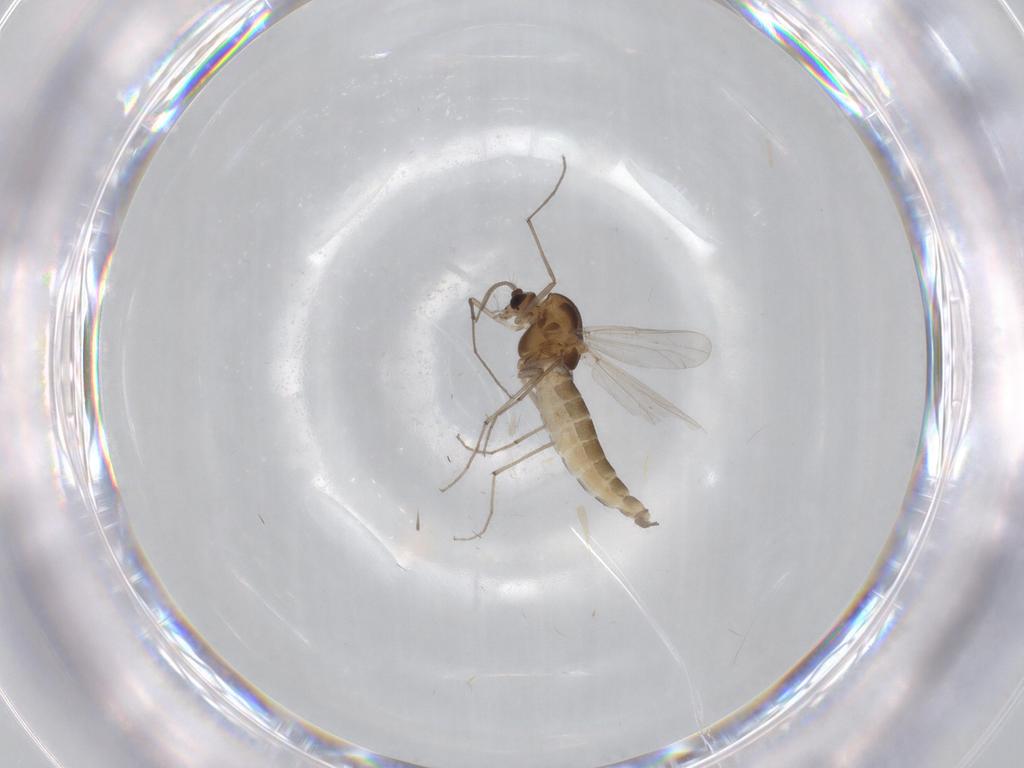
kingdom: Animalia
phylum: Arthropoda
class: Insecta
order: Diptera
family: Chironomidae
